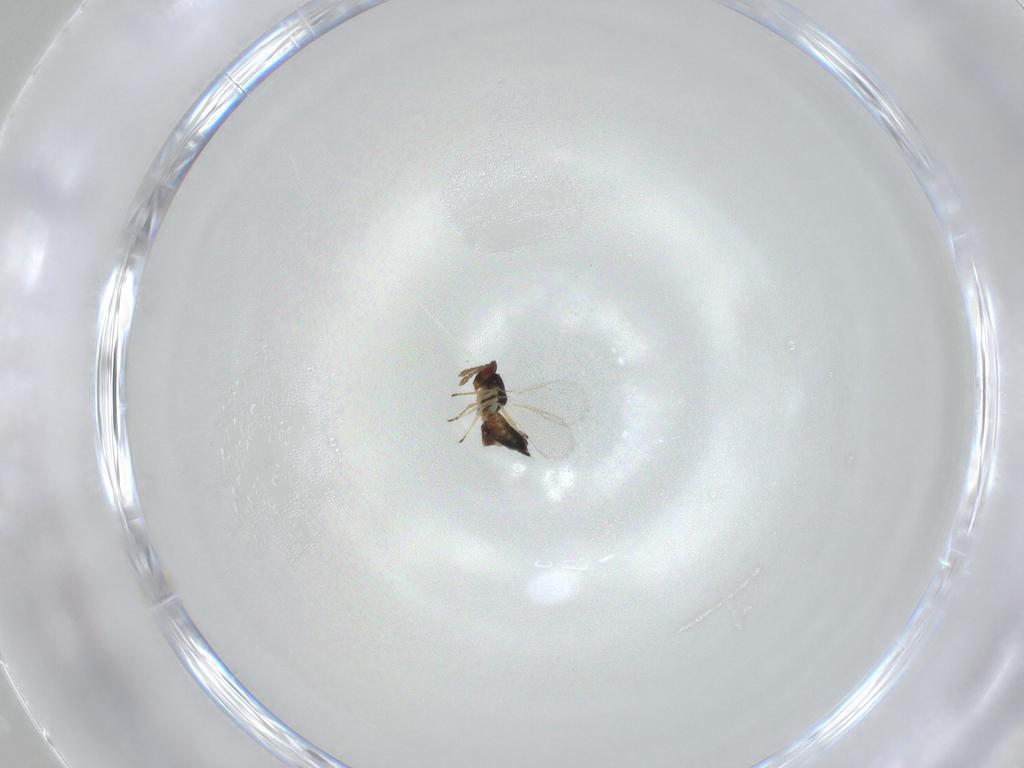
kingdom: Animalia
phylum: Arthropoda
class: Insecta
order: Hymenoptera
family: Eulophidae
